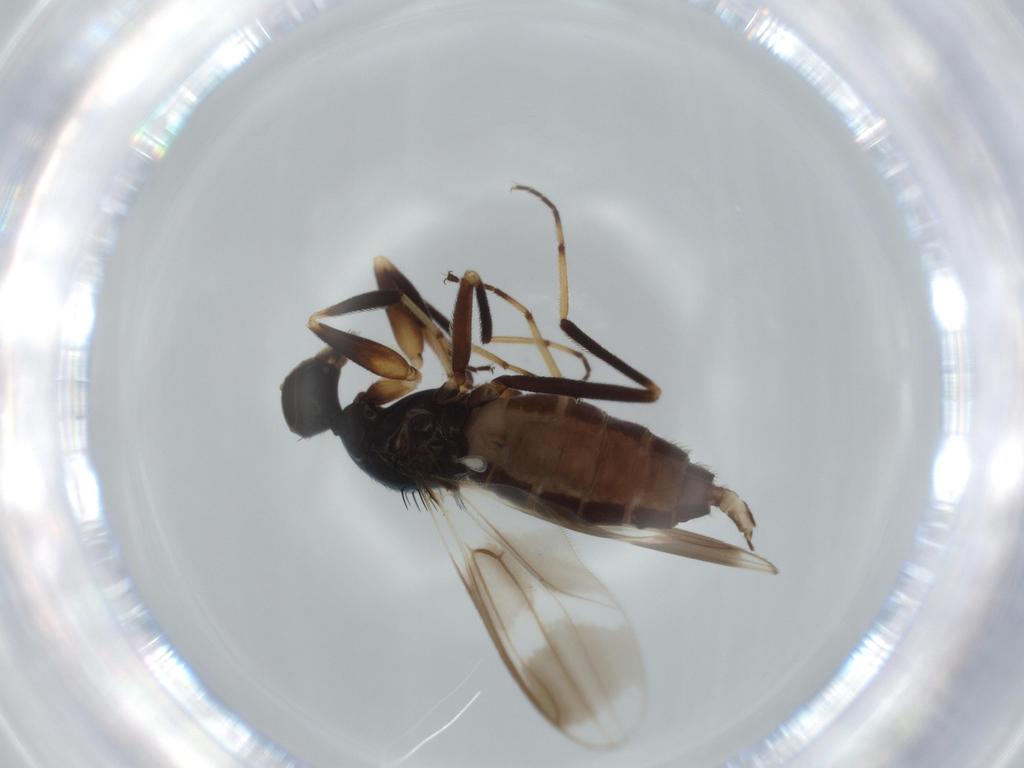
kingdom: Animalia
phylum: Arthropoda
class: Insecta
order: Diptera
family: Hybotidae
